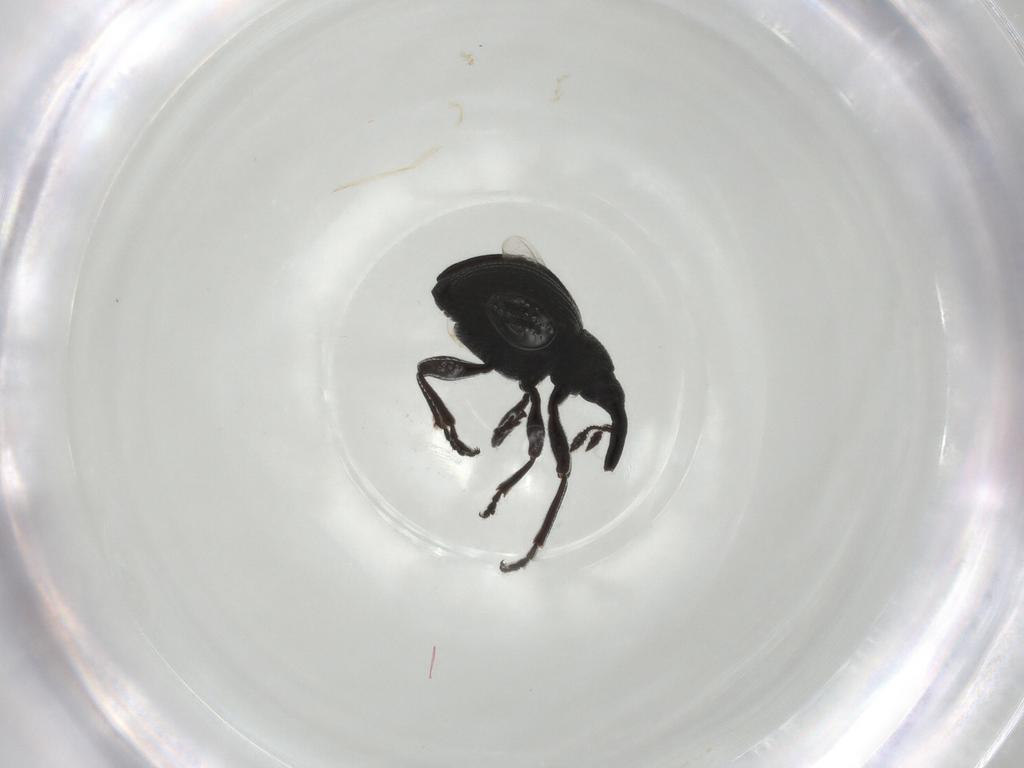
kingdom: Animalia
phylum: Arthropoda
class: Insecta
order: Coleoptera
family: Brentidae
